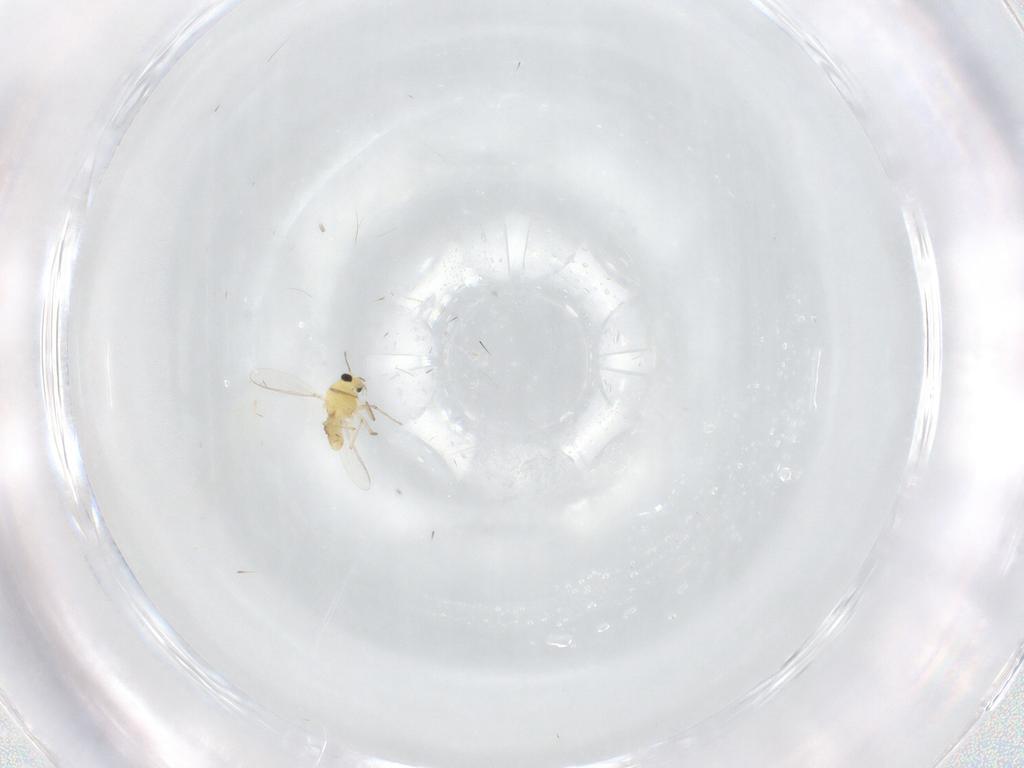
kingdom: Animalia
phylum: Arthropoda
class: Insecta
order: Diptera
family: Chironomidae
